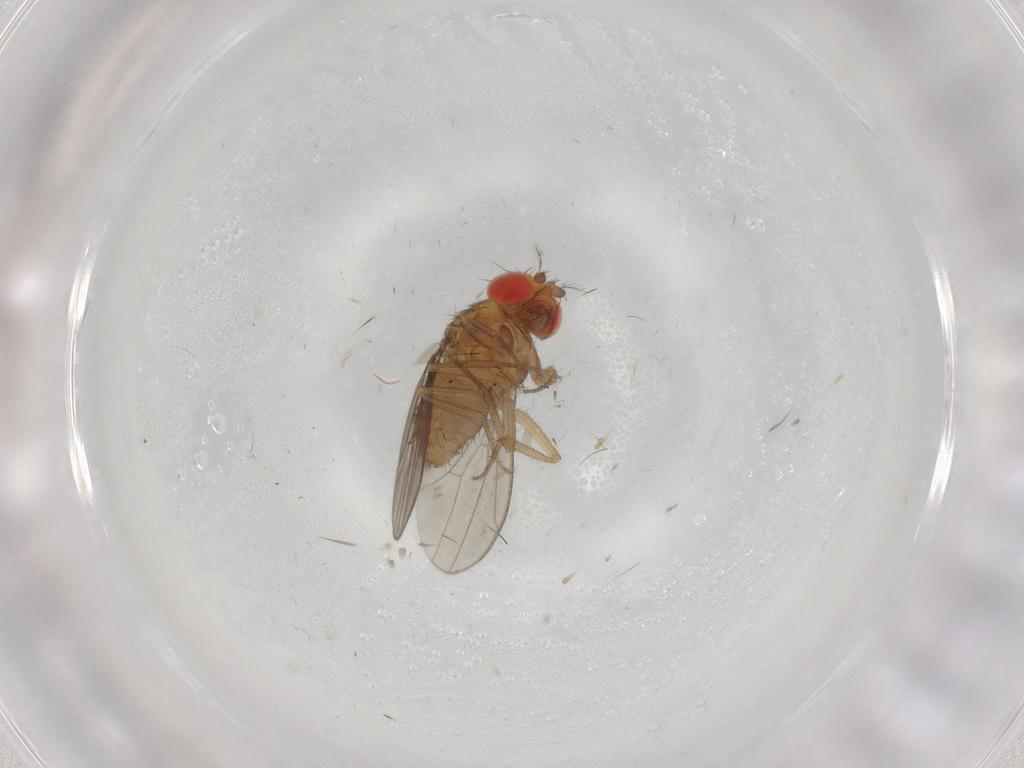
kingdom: Animalia
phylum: Arthropoda
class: Insecta
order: Diptera
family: Drosophilidae
